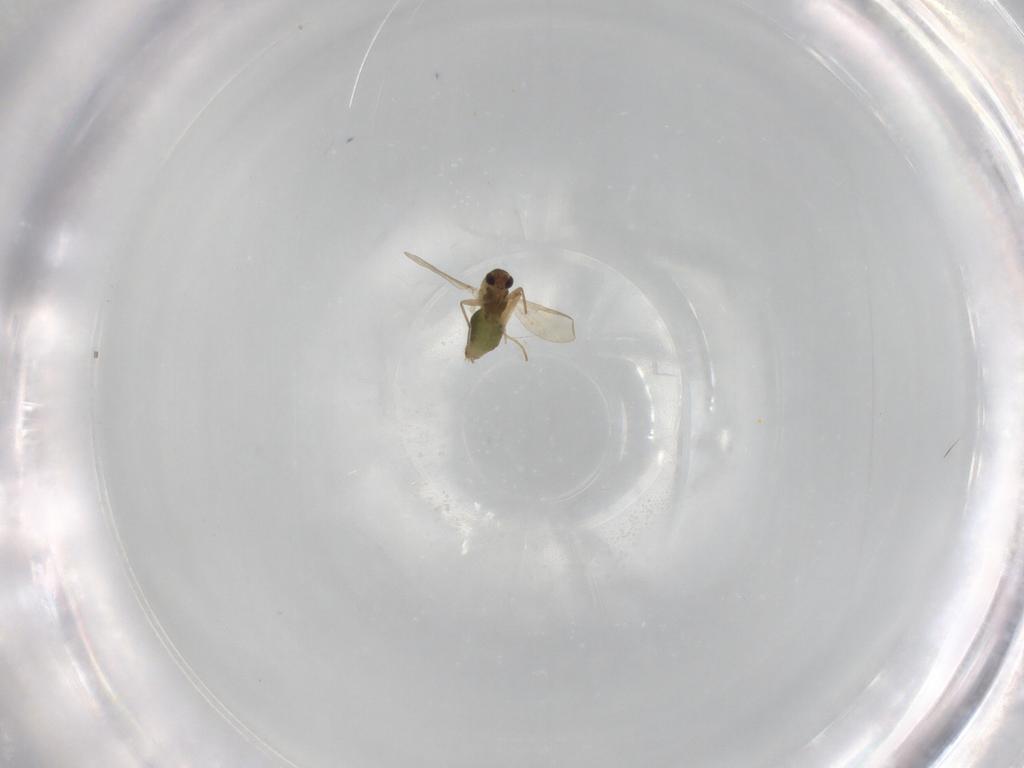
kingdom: Animalia
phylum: Arthropoda
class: Insecta
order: Diptera
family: Chironomidae
